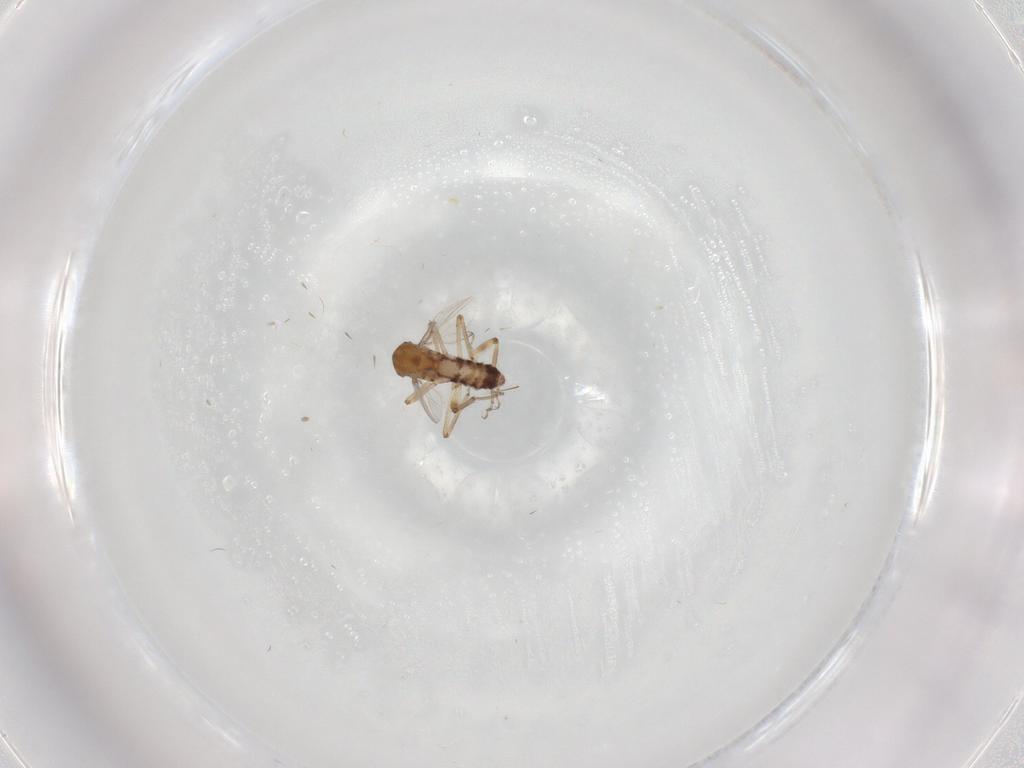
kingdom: Animalia
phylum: Arthropoda
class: Insecta
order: Diptera
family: Ceratopogonidae
